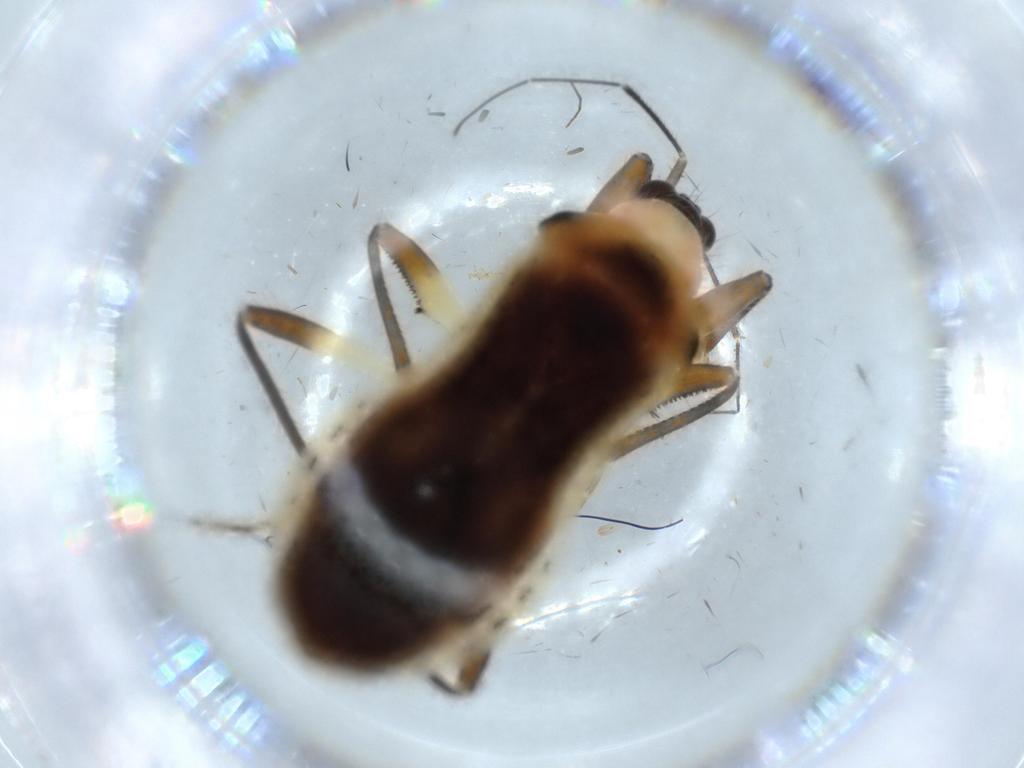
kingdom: Animalia
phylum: Arthropoda
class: Insecta
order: Hemiptera
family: Nabidae
